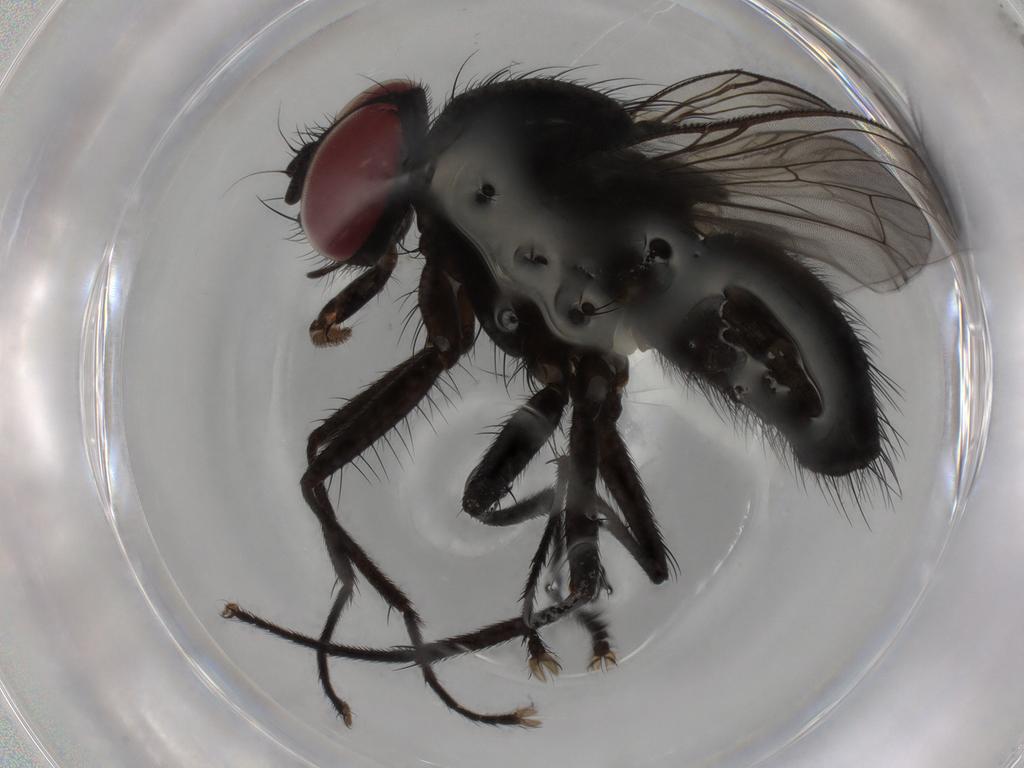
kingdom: Animalia
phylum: Arthropoda
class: Insecta
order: Diptera
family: Muscidae
